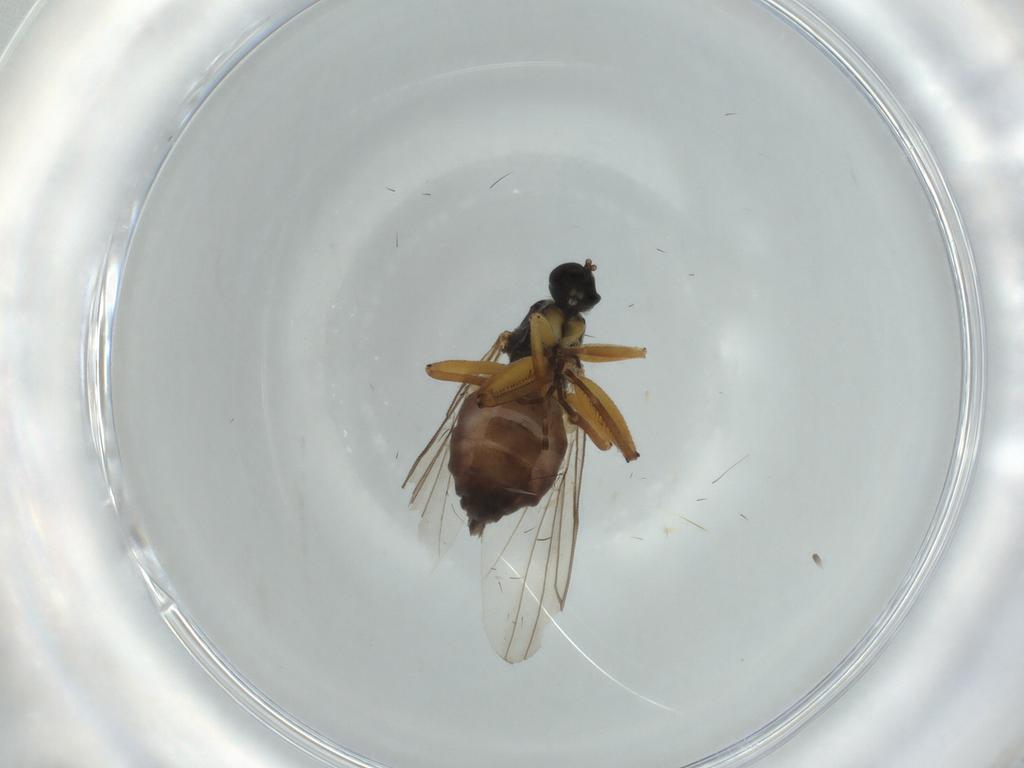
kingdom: Animalia
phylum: Arthropoda
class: Insecta
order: Diptera
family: Hybotidae
